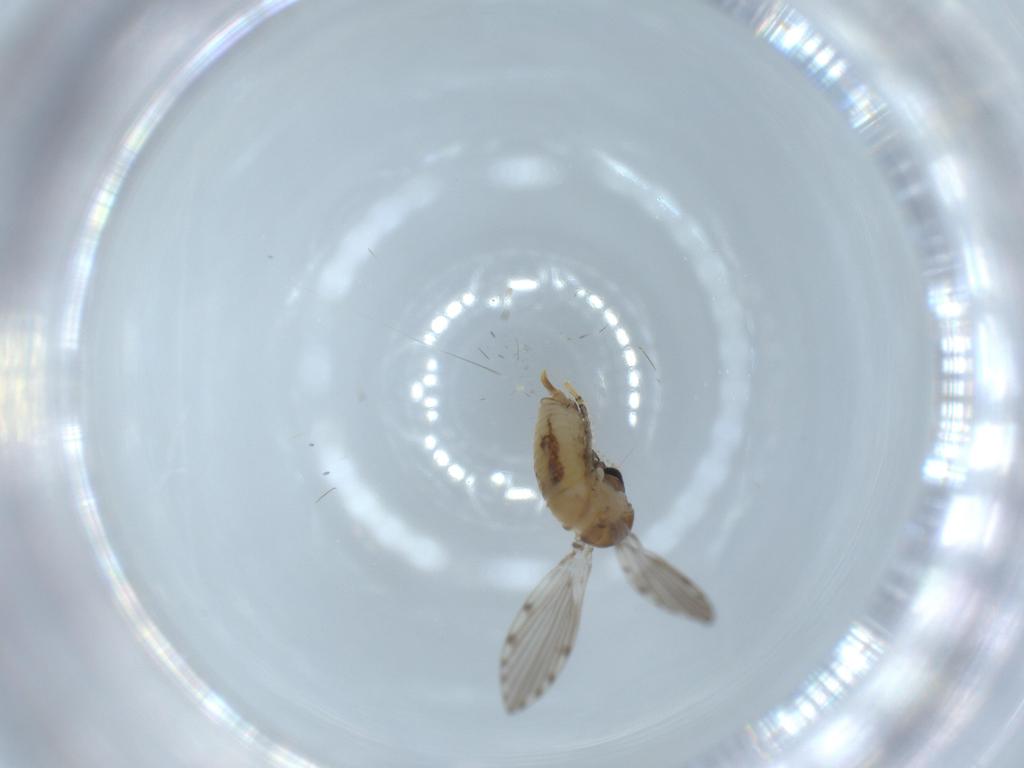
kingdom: Animalia
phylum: Arthropoda
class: Insecta
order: Diptera
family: Psychodidae
